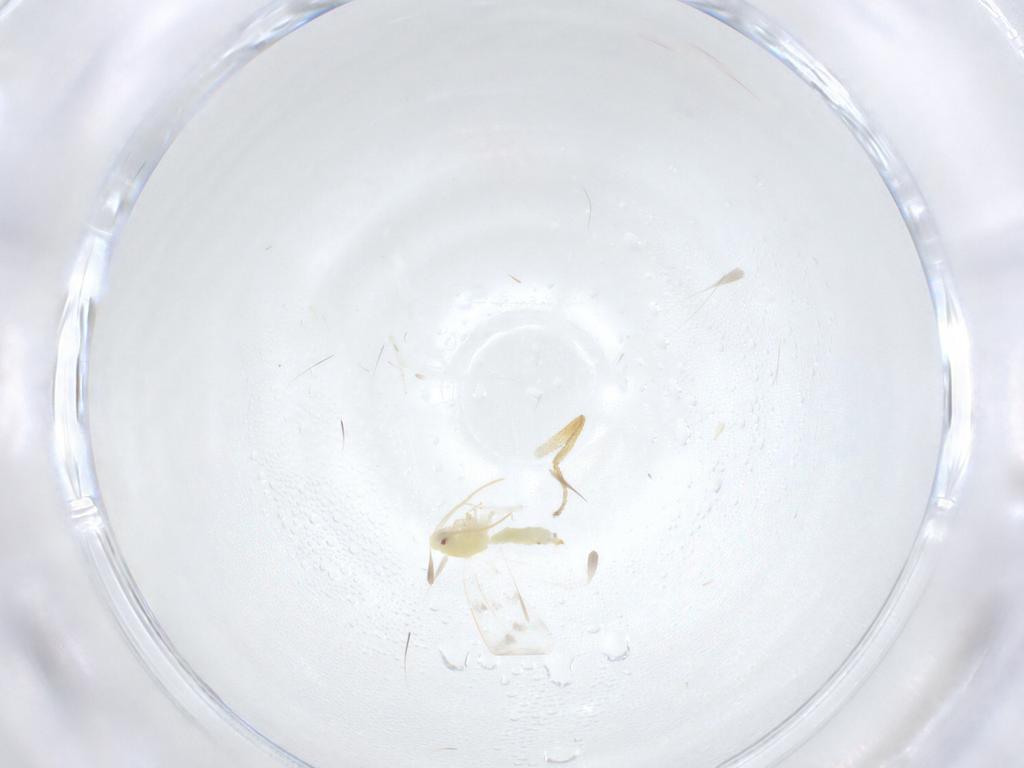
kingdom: Animalia
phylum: Arthropoda
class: Insecta
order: Hemiptera
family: Aleyrodidae
